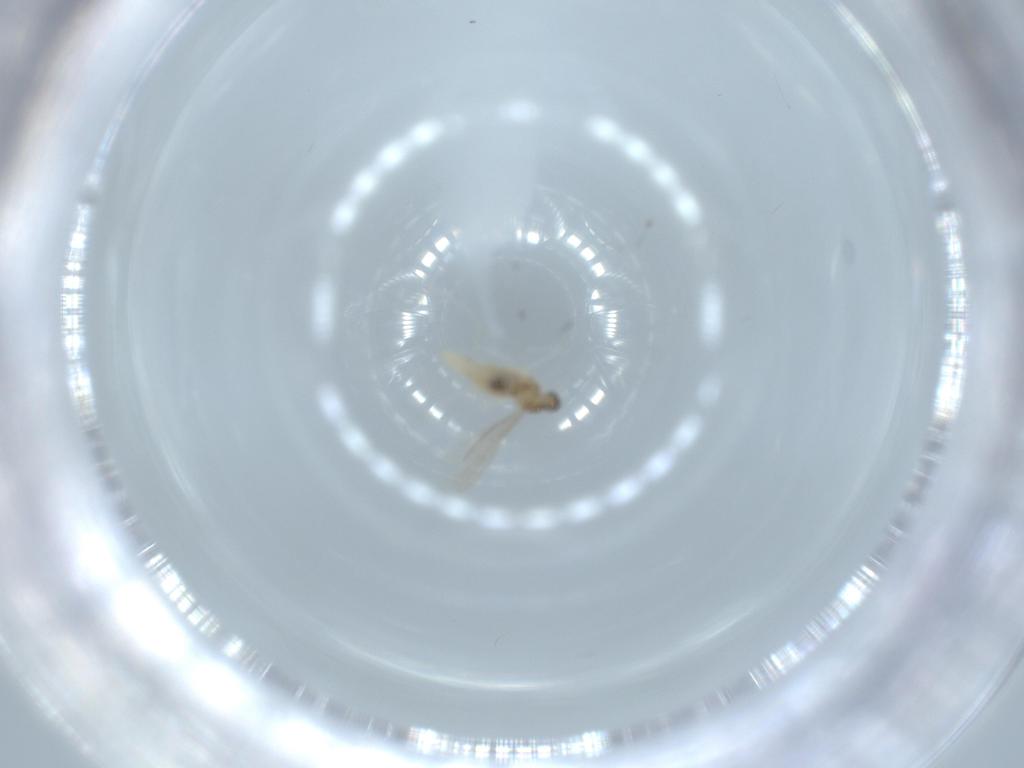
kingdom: Animalia
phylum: Arthropoda
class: Insecta
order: Diptera
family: Cecidomyiidae
